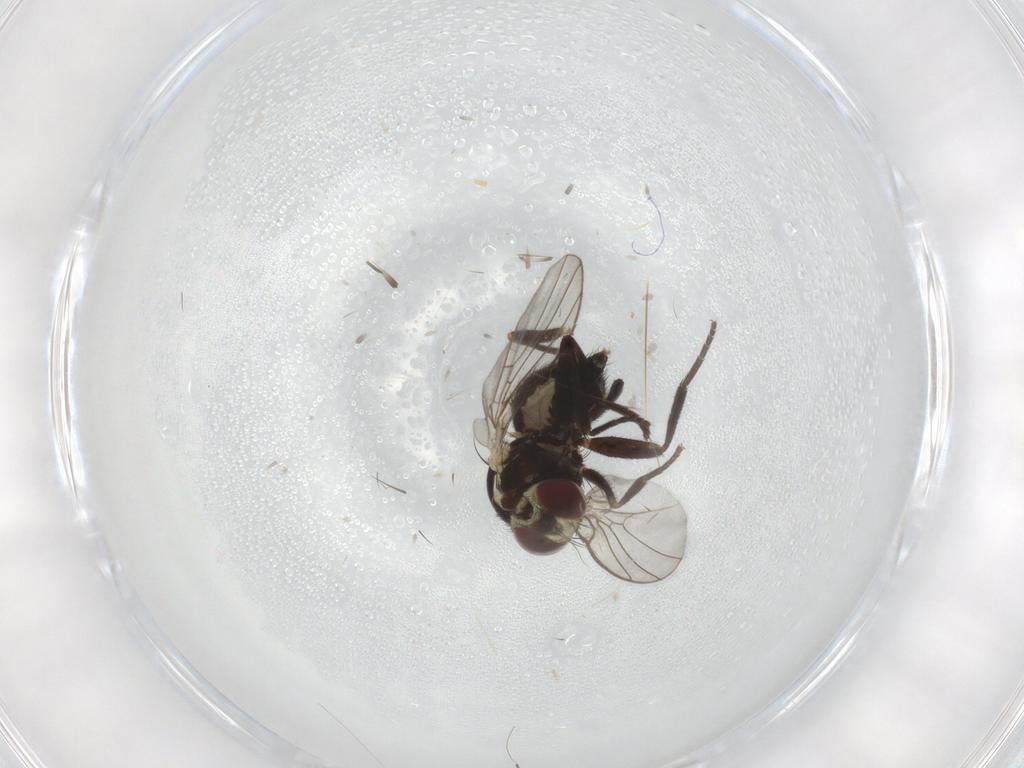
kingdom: Animalia
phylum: Arthropoda
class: Insecta
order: Diptera
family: Agromyzidae
